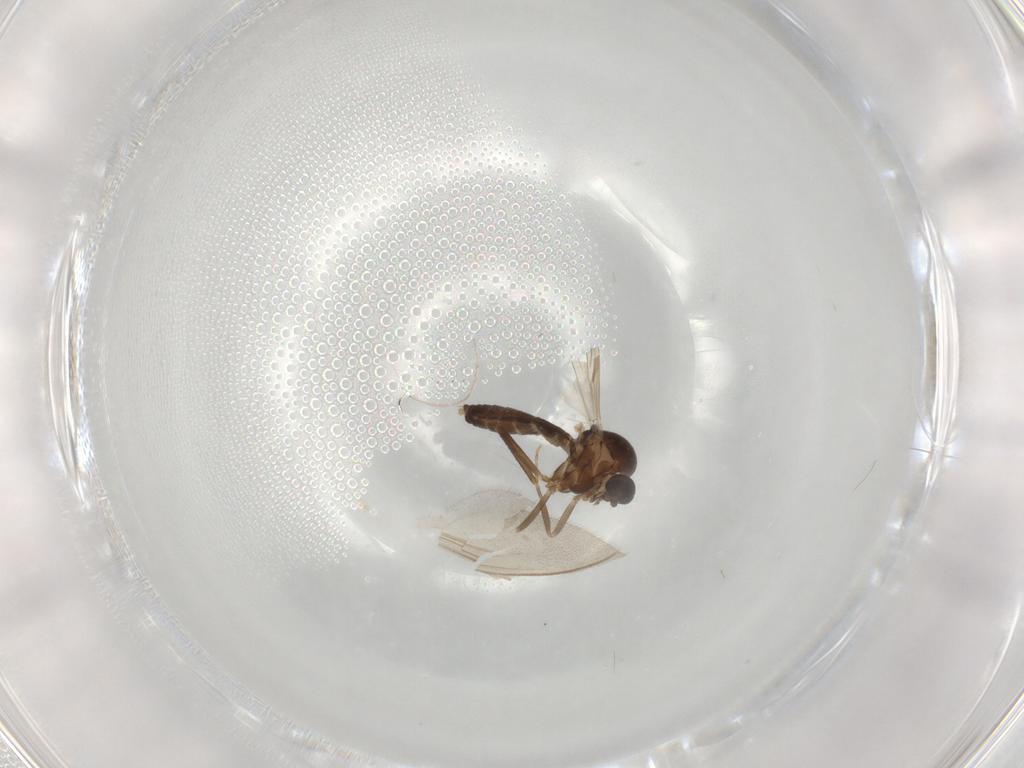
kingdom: Animalia
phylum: Arthropoda
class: Insecta
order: Diptera
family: Ceratopogonidae
